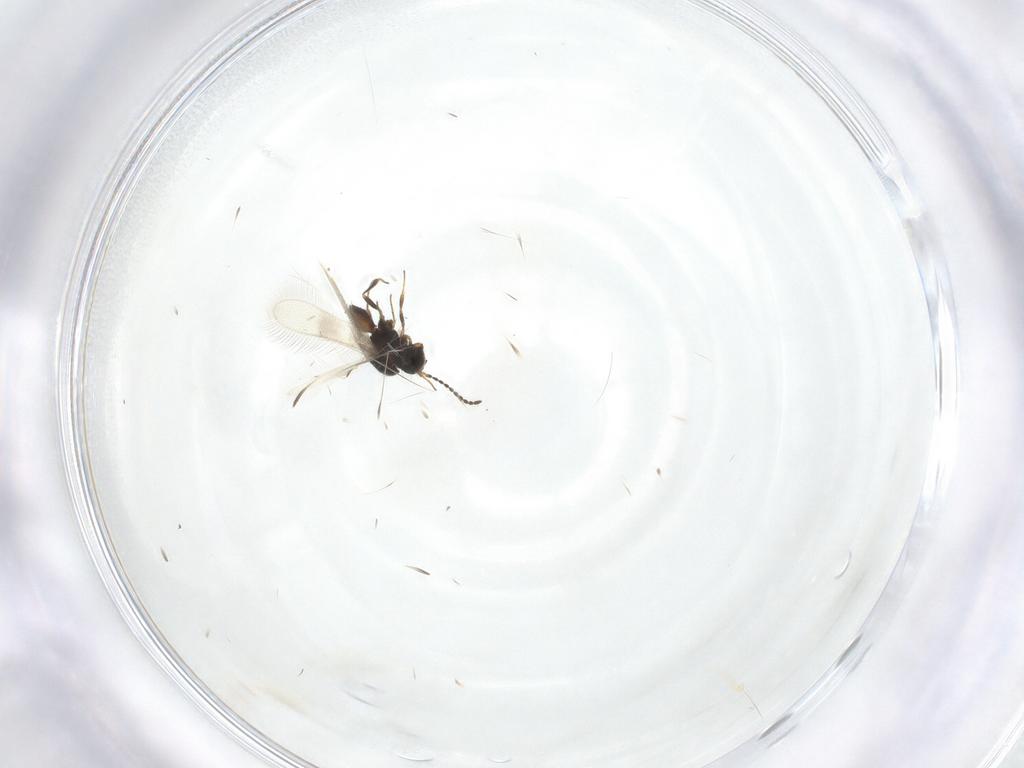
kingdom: Animalia
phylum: Arthropoda
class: Insecta
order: Hymenoptera
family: Scelionidae
